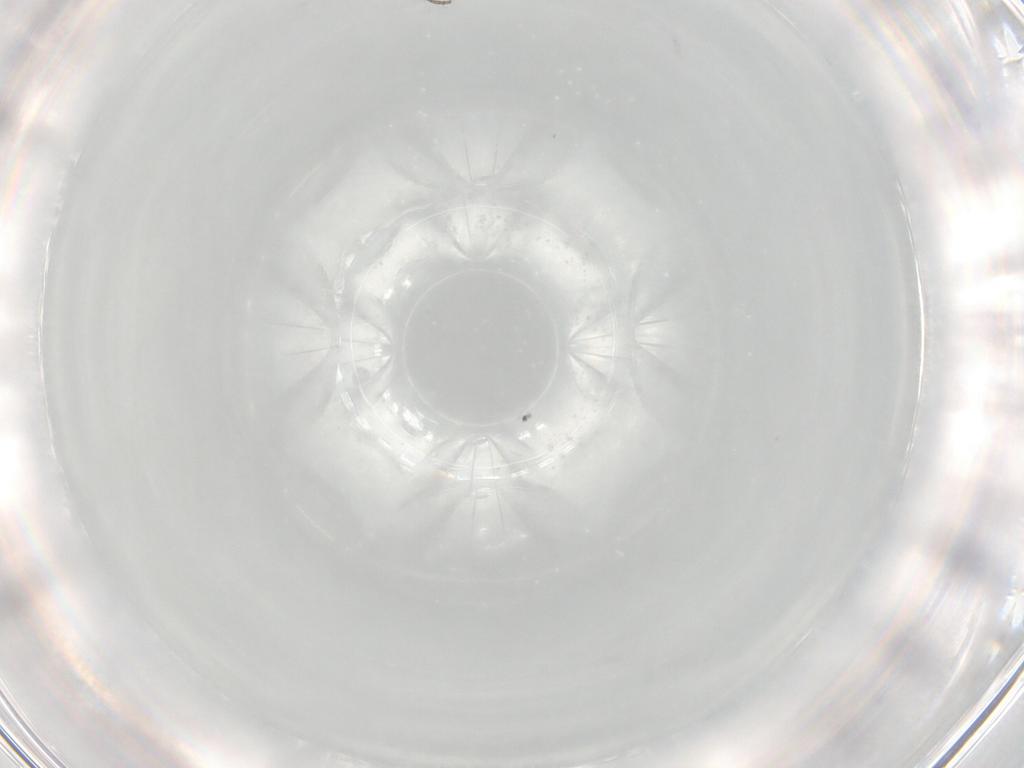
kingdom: Animalia
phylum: Arthropoda
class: Insecta
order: Diptera
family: Chironomidae
